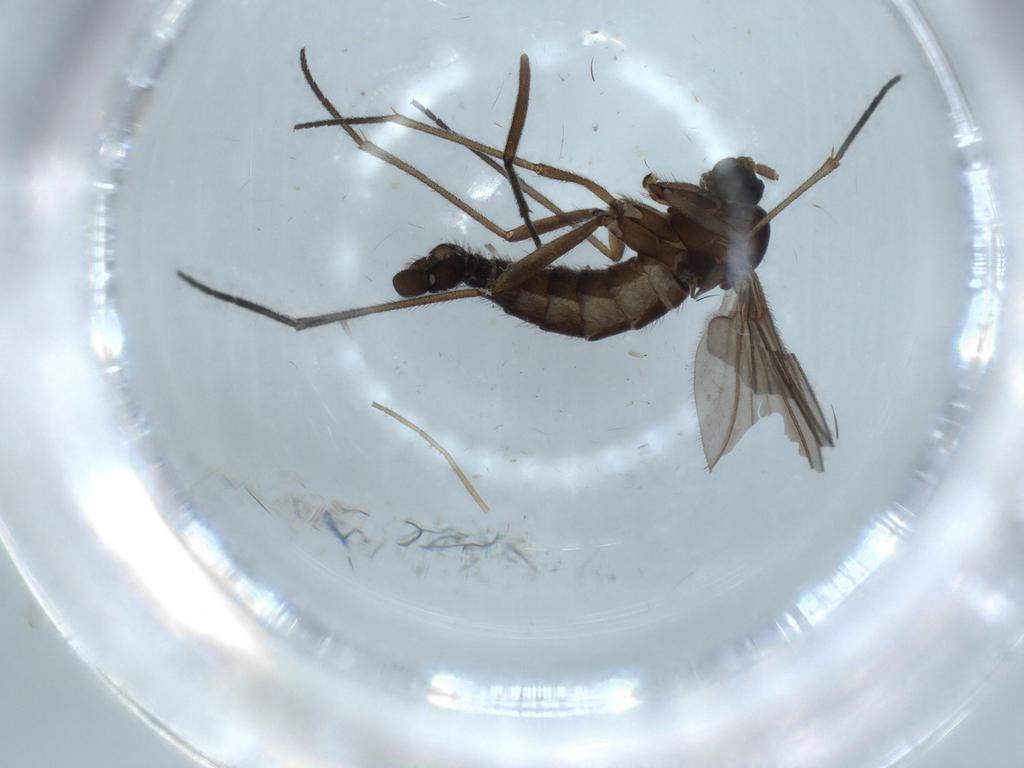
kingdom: Animalia
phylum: Arthropoda
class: Insecta
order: Diptera
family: Sciaridae
